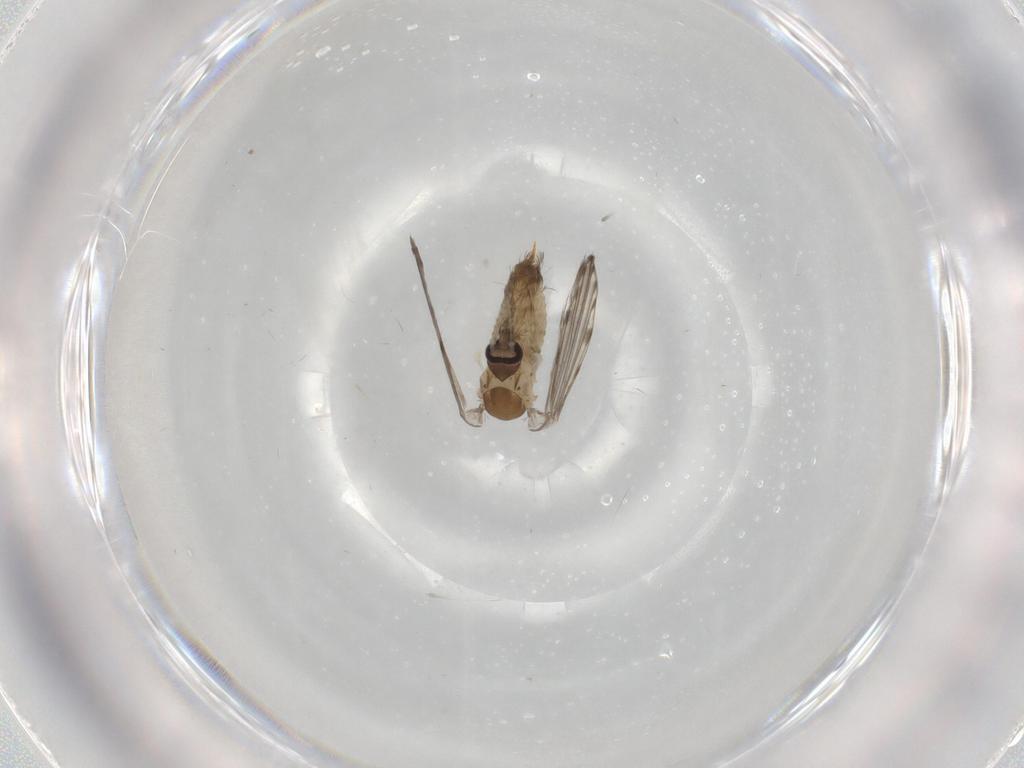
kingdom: Animalia
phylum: Arthropoda
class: Insecta
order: Diptera
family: Psychodidae
